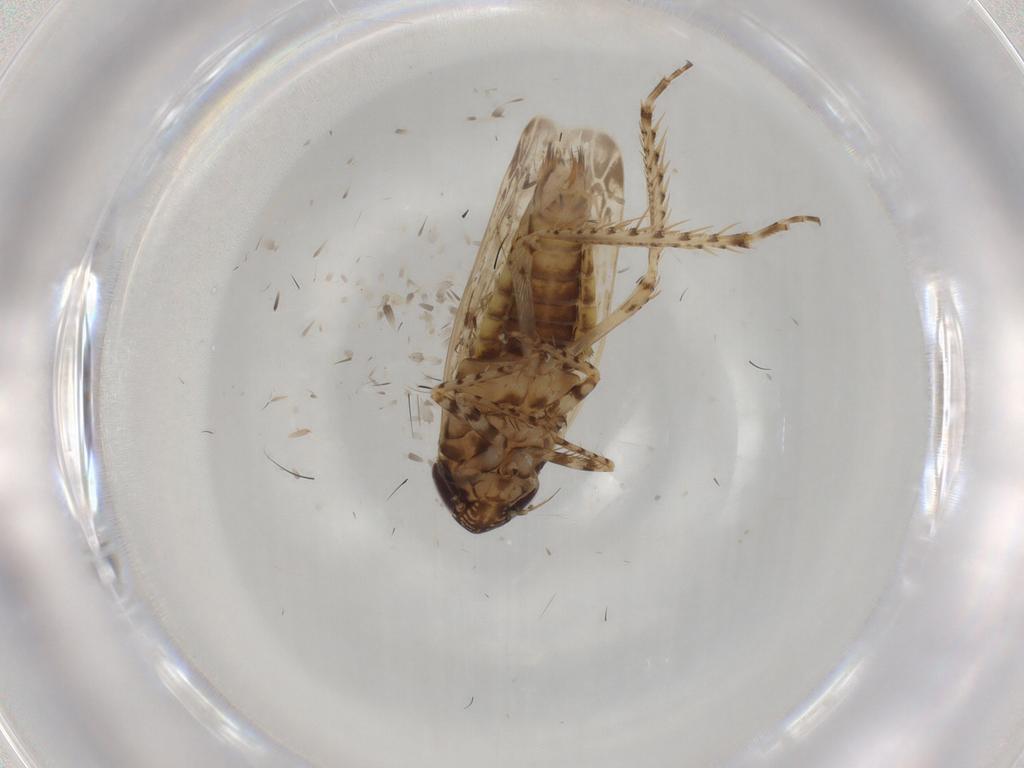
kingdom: Animalia
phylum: Arthropoda
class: Insecta
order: Hemiptera
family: Cicadellidae
